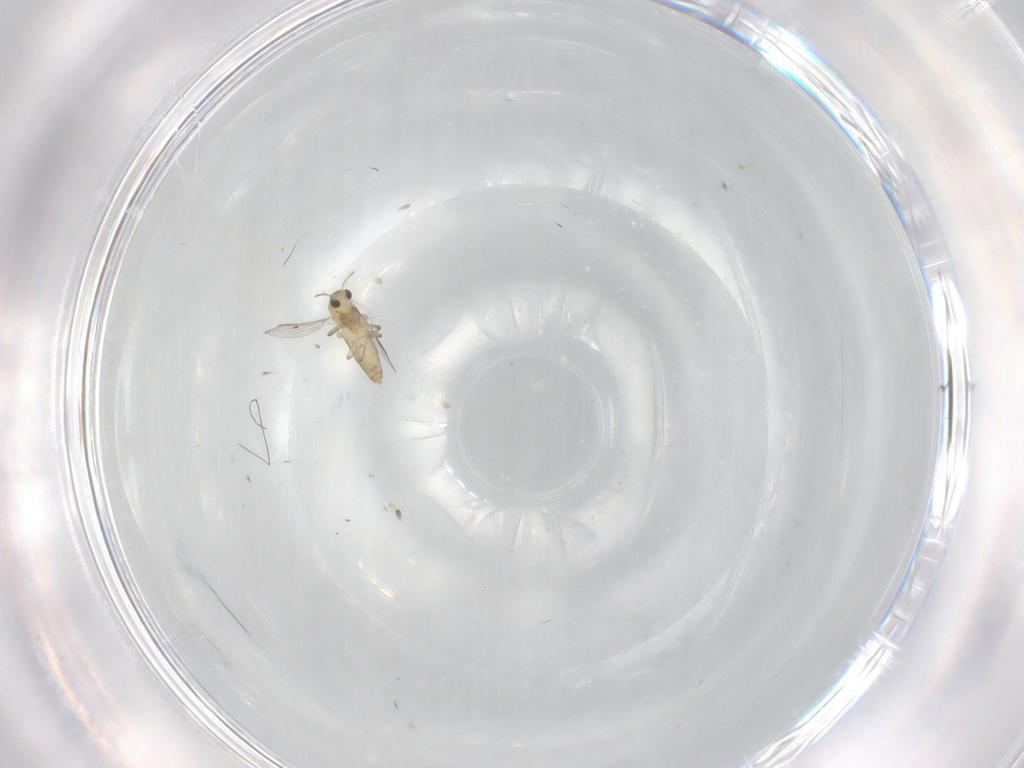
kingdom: Animalia
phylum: Arthropoda
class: Insecta
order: Diptera
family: Chironomidae
